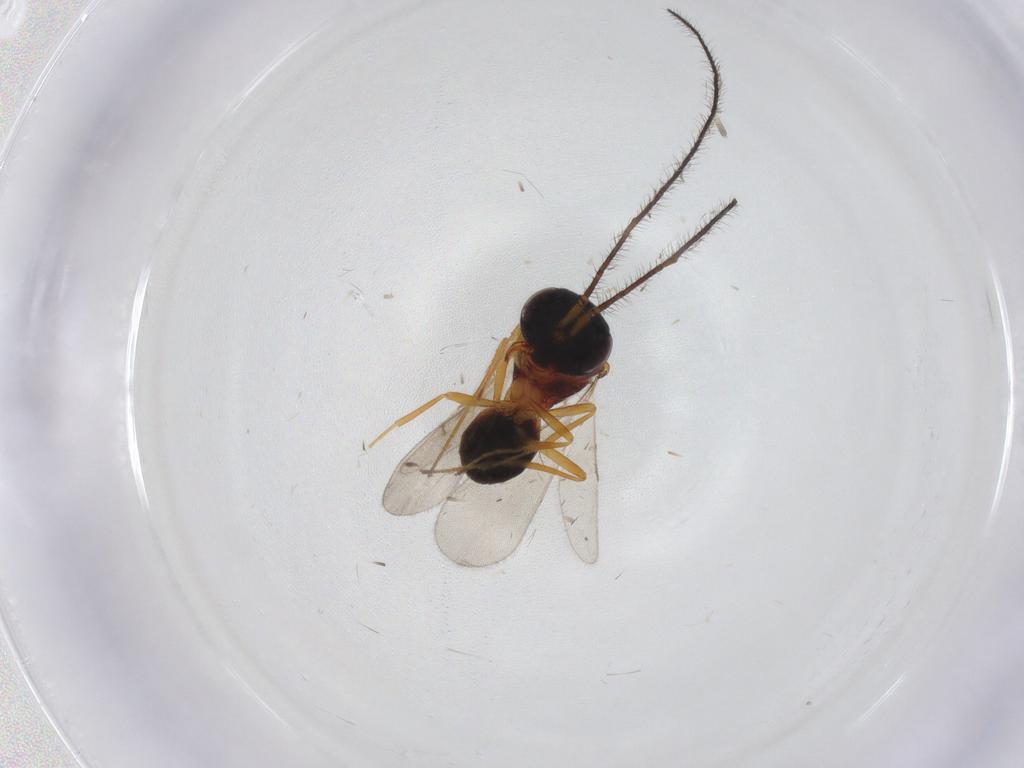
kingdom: Animalia
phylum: Arthropoda
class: Insecta
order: Hymenoptera
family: Scelionidae
